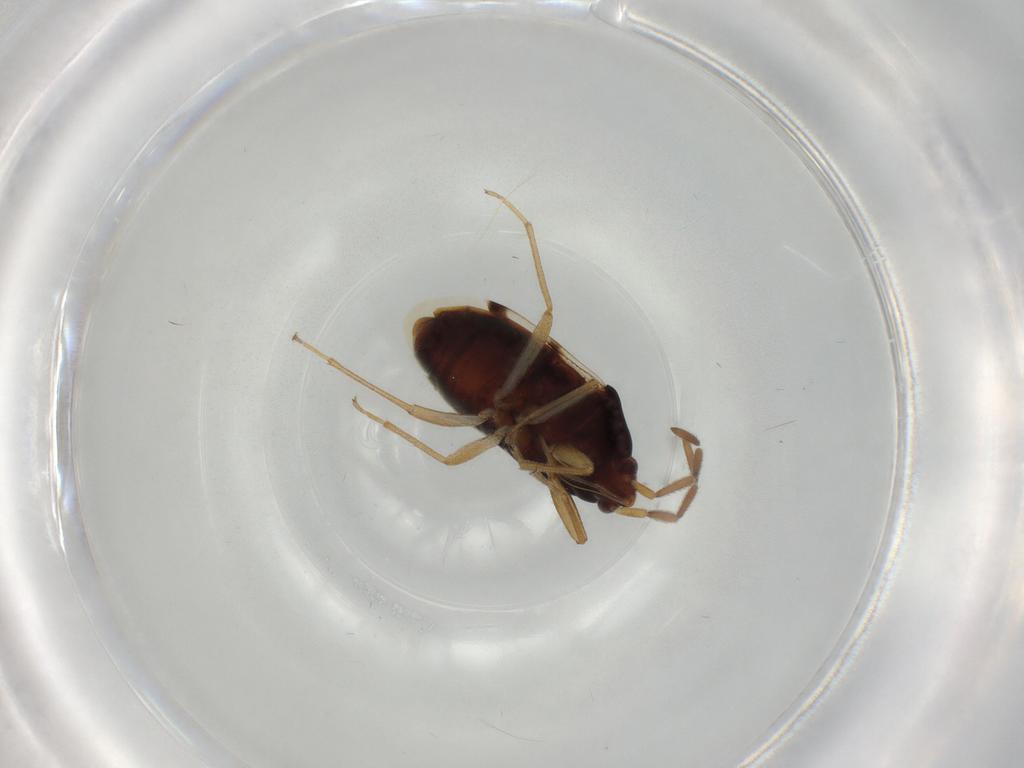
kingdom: Animalia
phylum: Arthropoda
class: Insecta
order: Hemiptera
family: Rhyparochromidae
